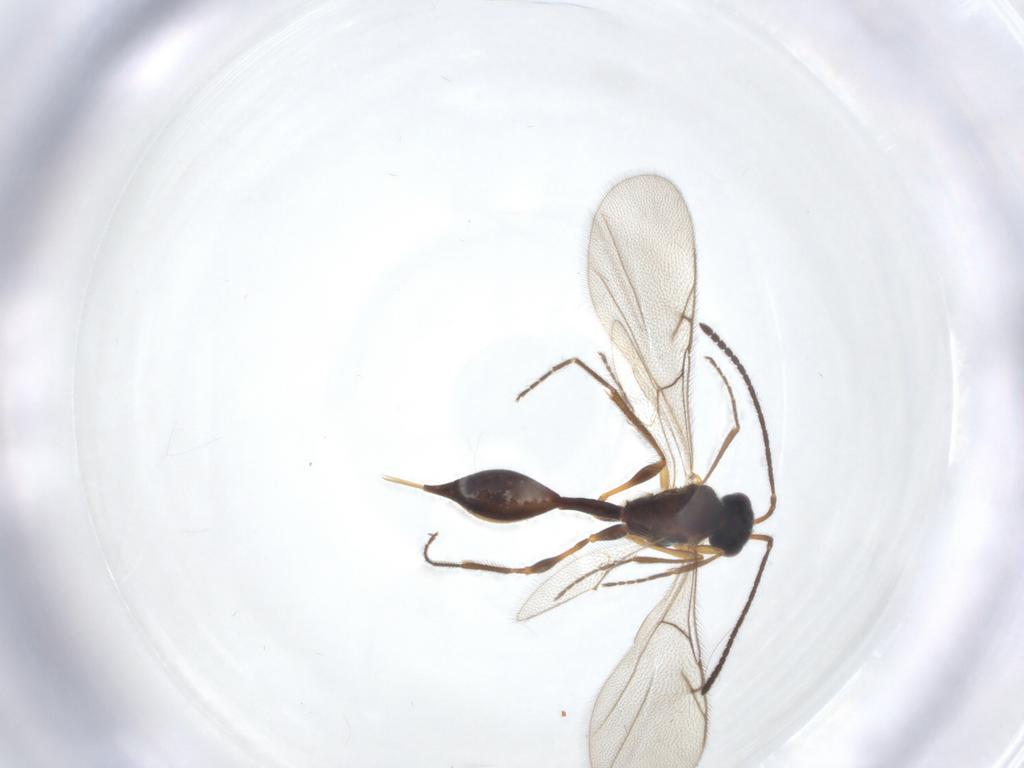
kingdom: Animalia
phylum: Arthropoda
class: Insecta
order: Hymenoptera
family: Diapriidae
